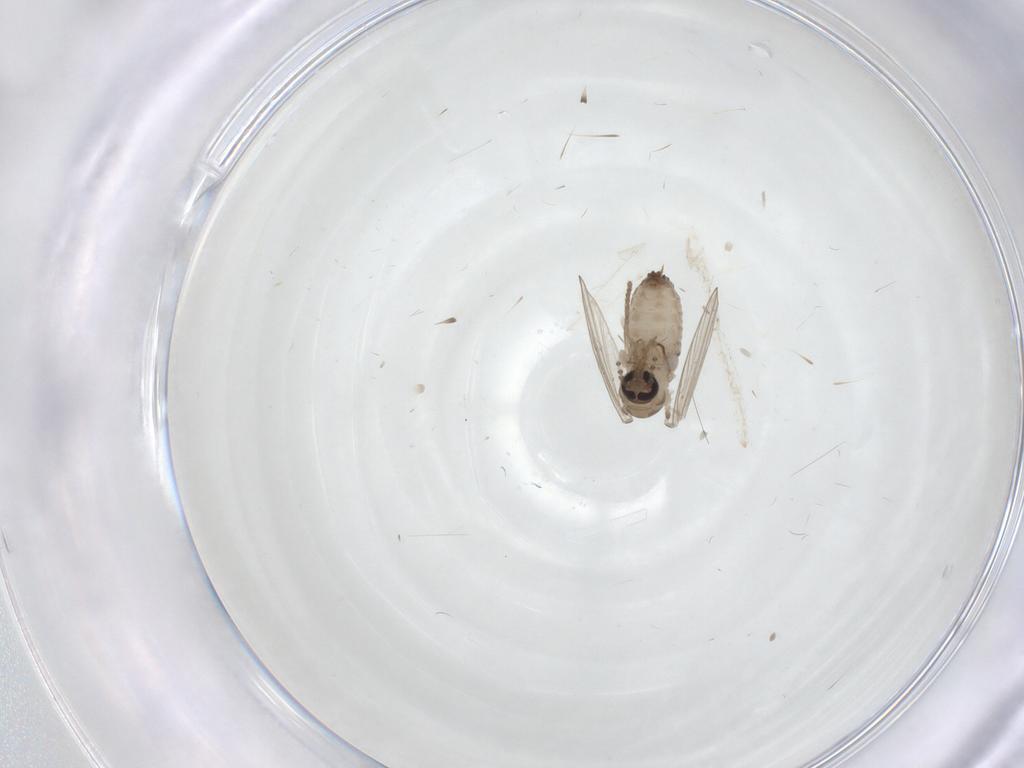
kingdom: Animalia
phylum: Arthropoda
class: Insecta
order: Diptera
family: Psychodidae
